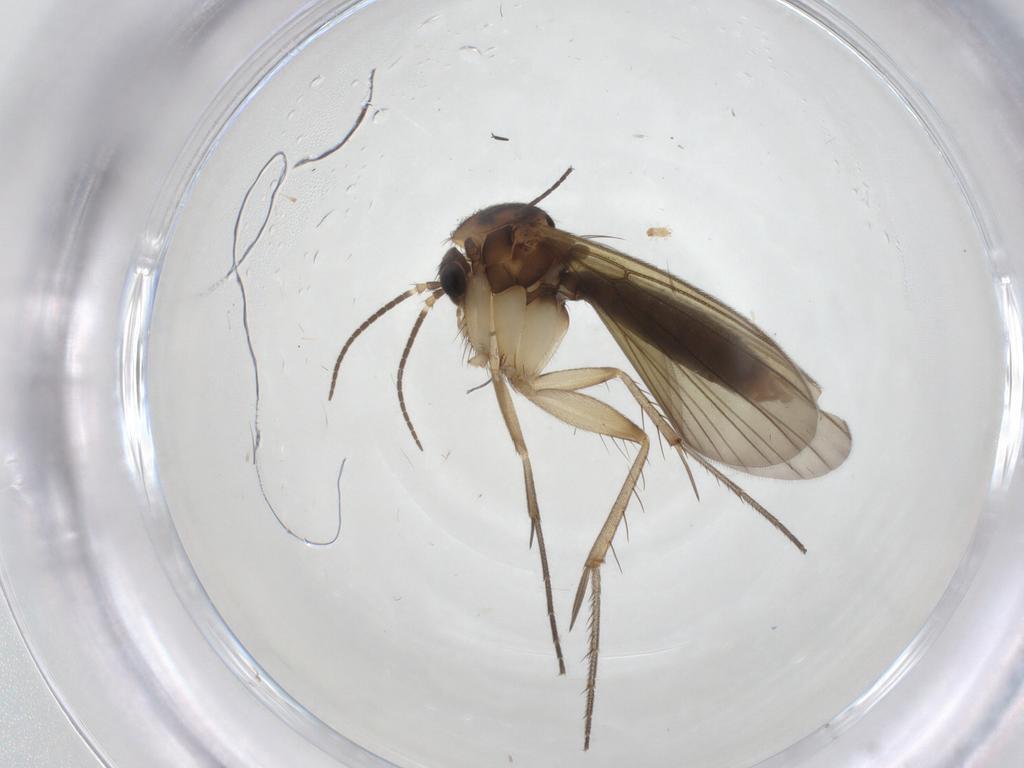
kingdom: Animalia
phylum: Arthropoda
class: Insecta
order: Diptera
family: Mycetophilidae
